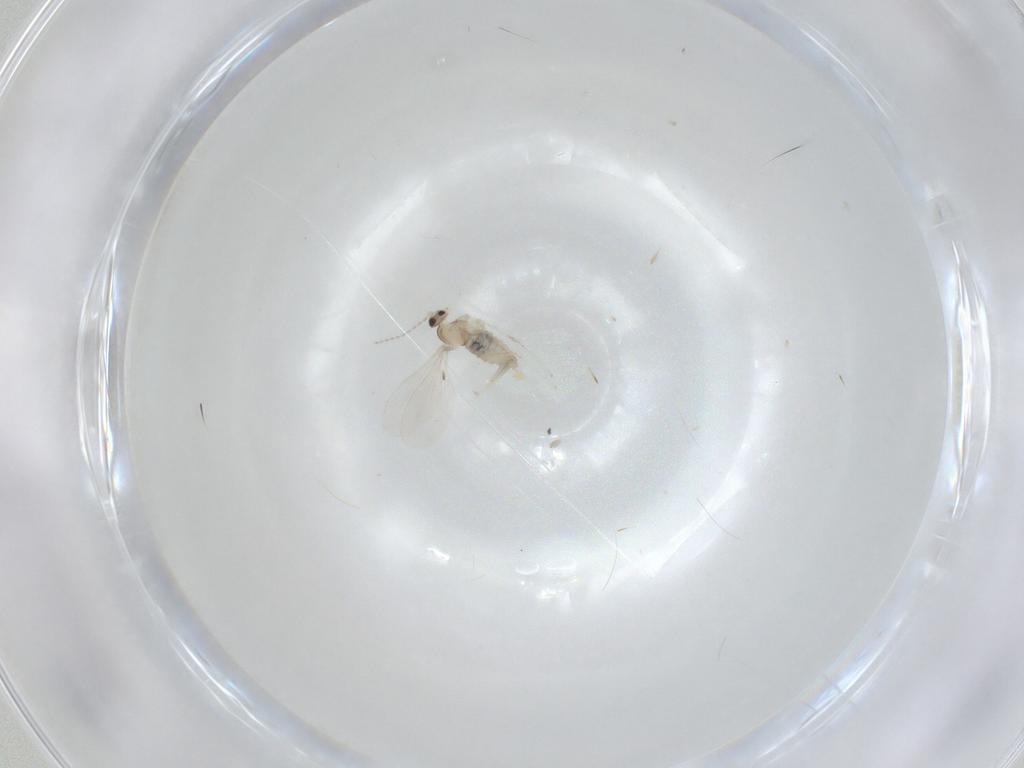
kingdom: Animalia
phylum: Arthropoda
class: Insecta
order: Diptera
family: Cecidomyiidae
